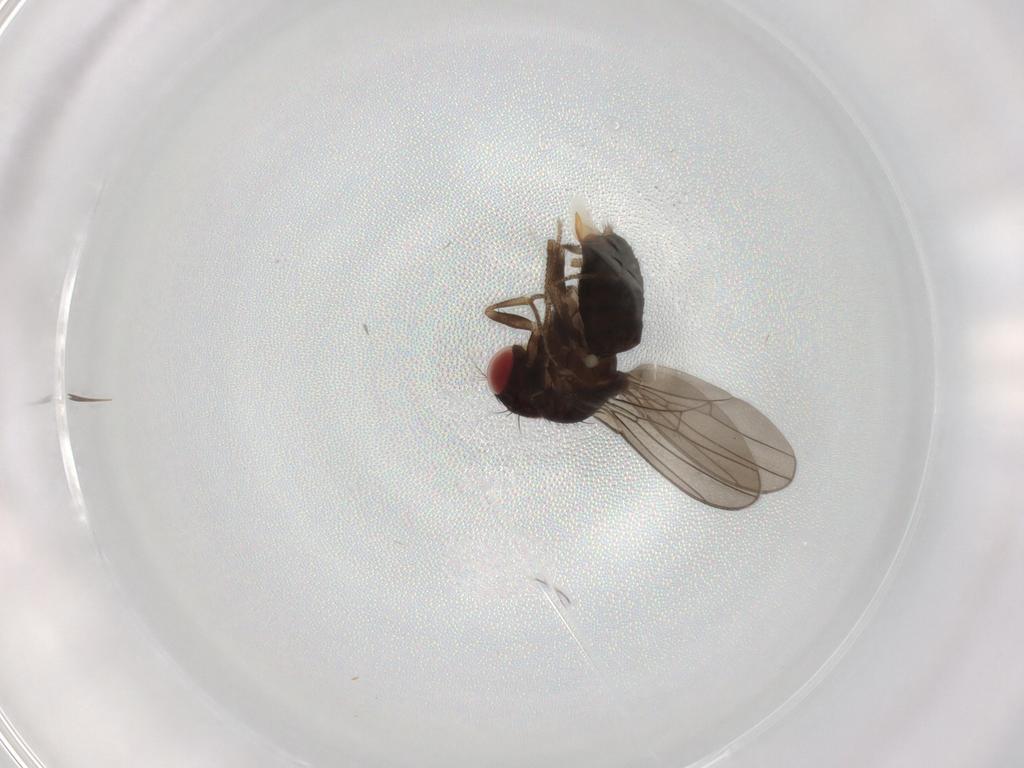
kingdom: Animalia
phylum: Arthropoda
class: Insecta
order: Diptera
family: Drosophilidae
